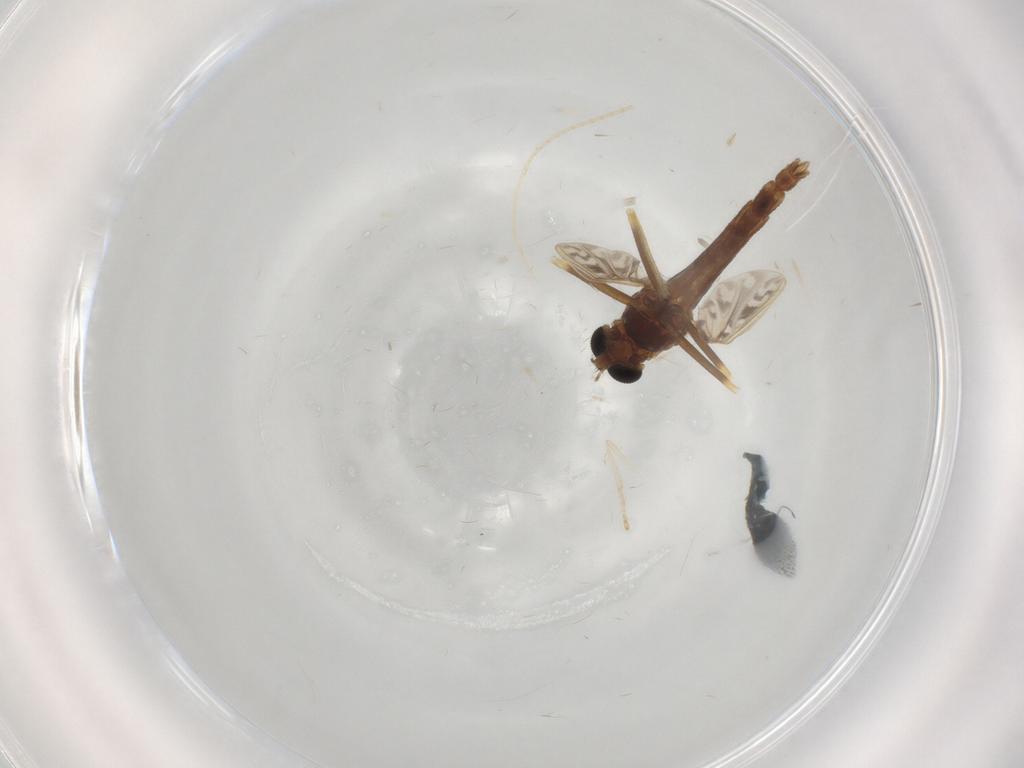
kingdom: Animalia
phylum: Arthropoda
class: Insecta
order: Diptera
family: Chironomidae
